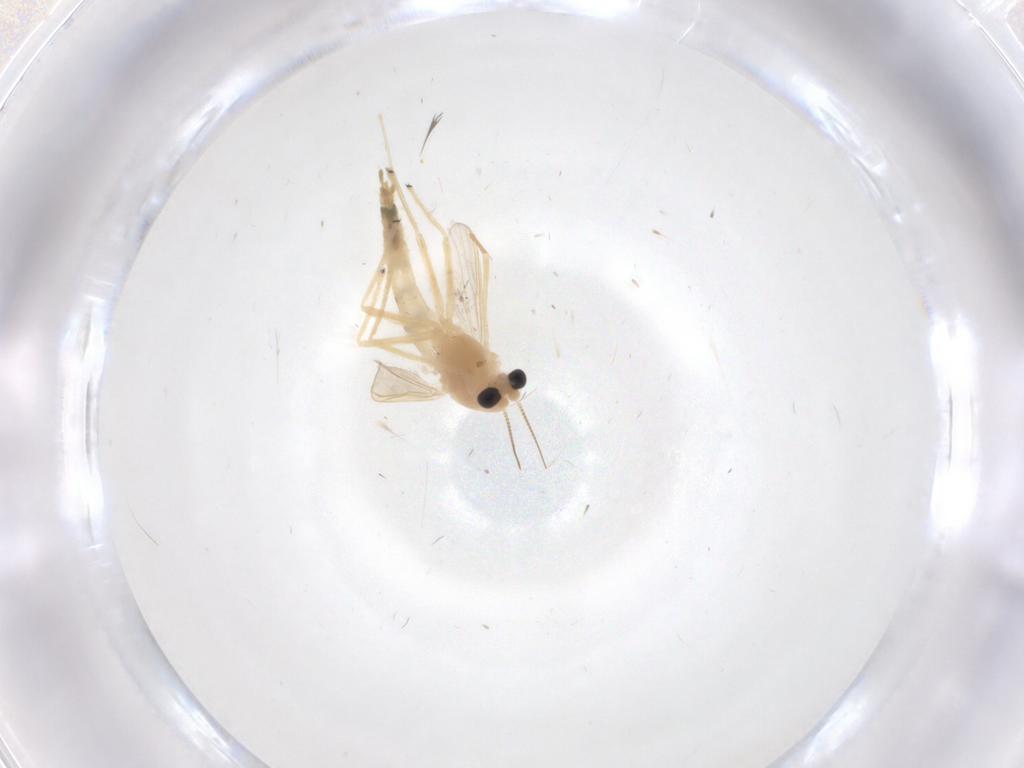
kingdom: Animalia
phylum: Arthropoda
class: Insecta
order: Diptera
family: Chironomidae
